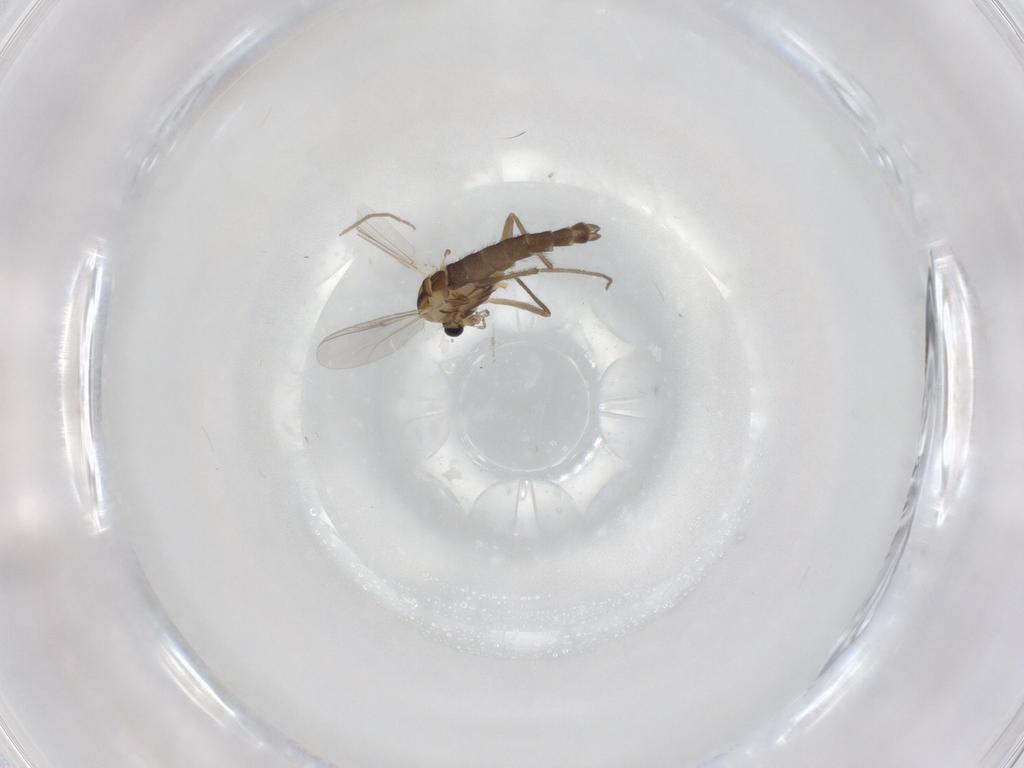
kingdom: Animalia
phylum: Arthropoda
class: Insecta
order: Diptera
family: Chironomidae
